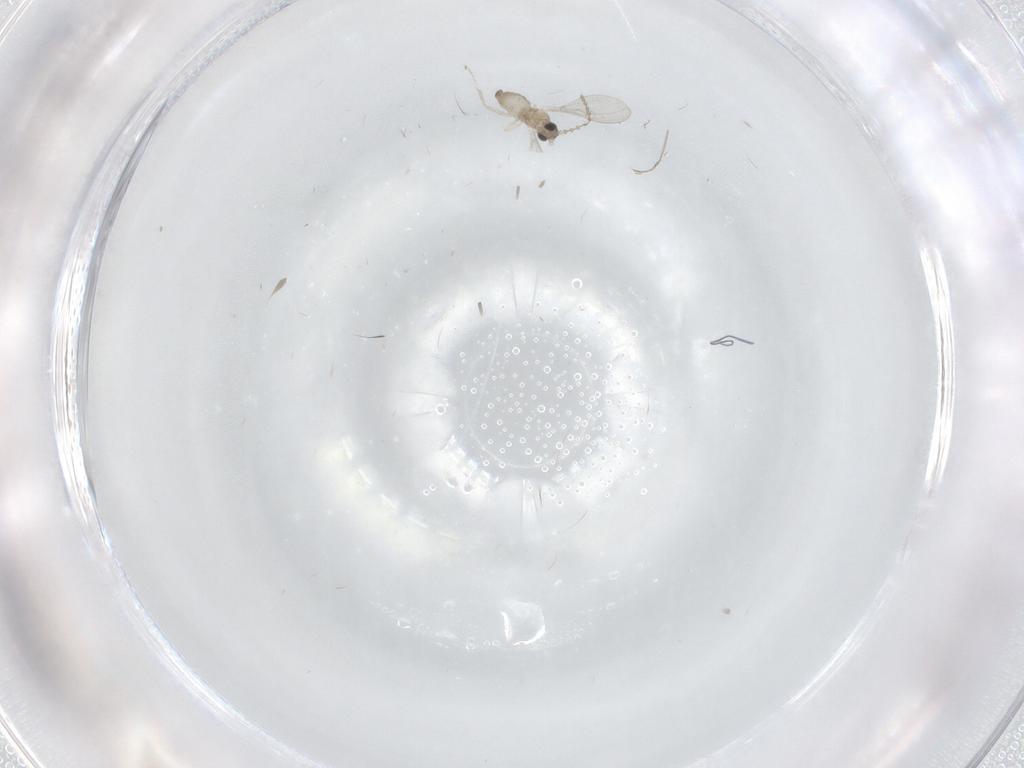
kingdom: Animalia
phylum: Arthropoda
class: Insecta
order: Diptera
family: Cecidomyiidae
